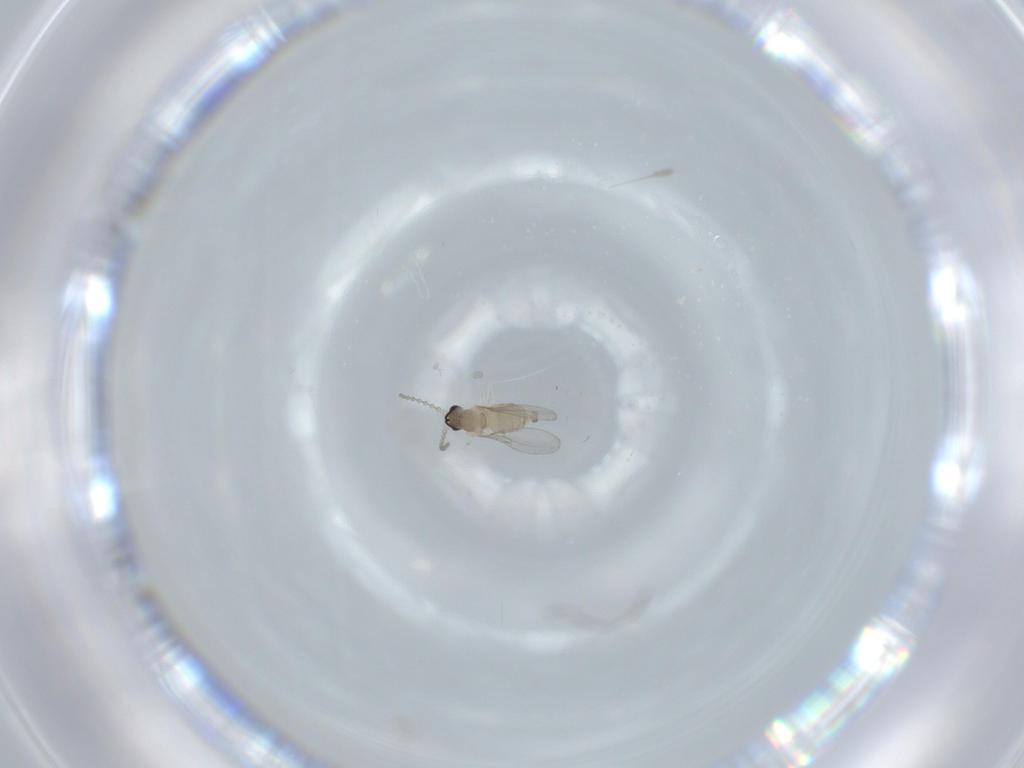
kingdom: Animalia
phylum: Arthropoda
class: Insecta
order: Diptera
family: Cecidomyiidae
